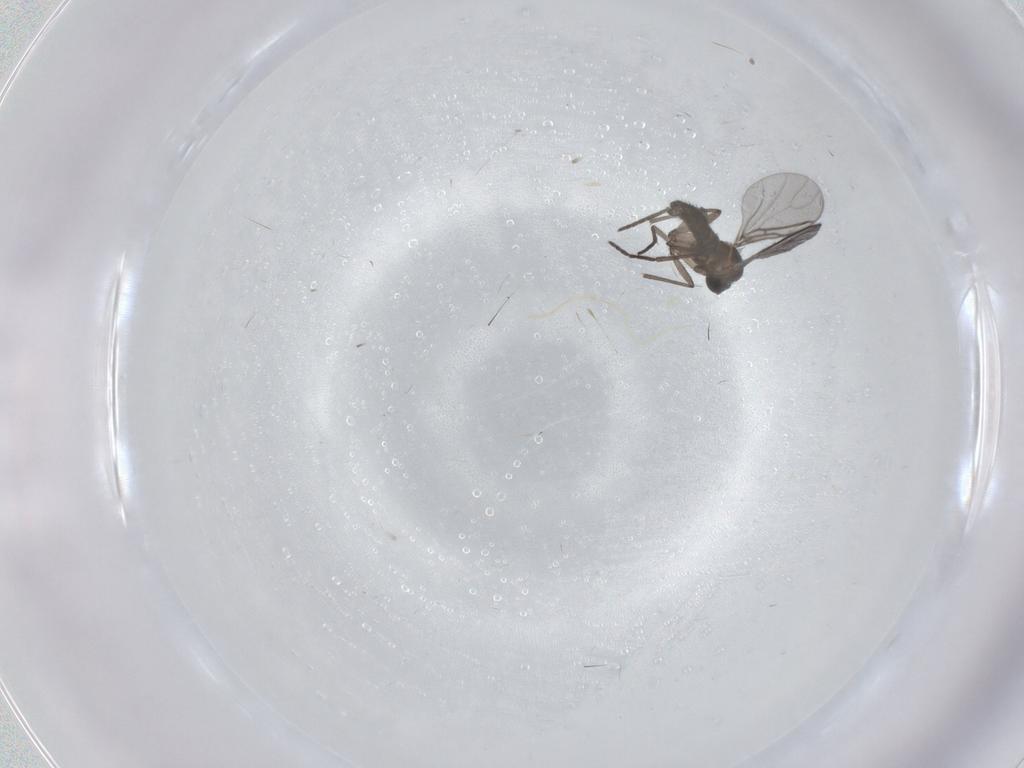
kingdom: Animalia
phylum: Arthropoda
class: Insecta
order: Diptera
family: Cecidomyiidae
